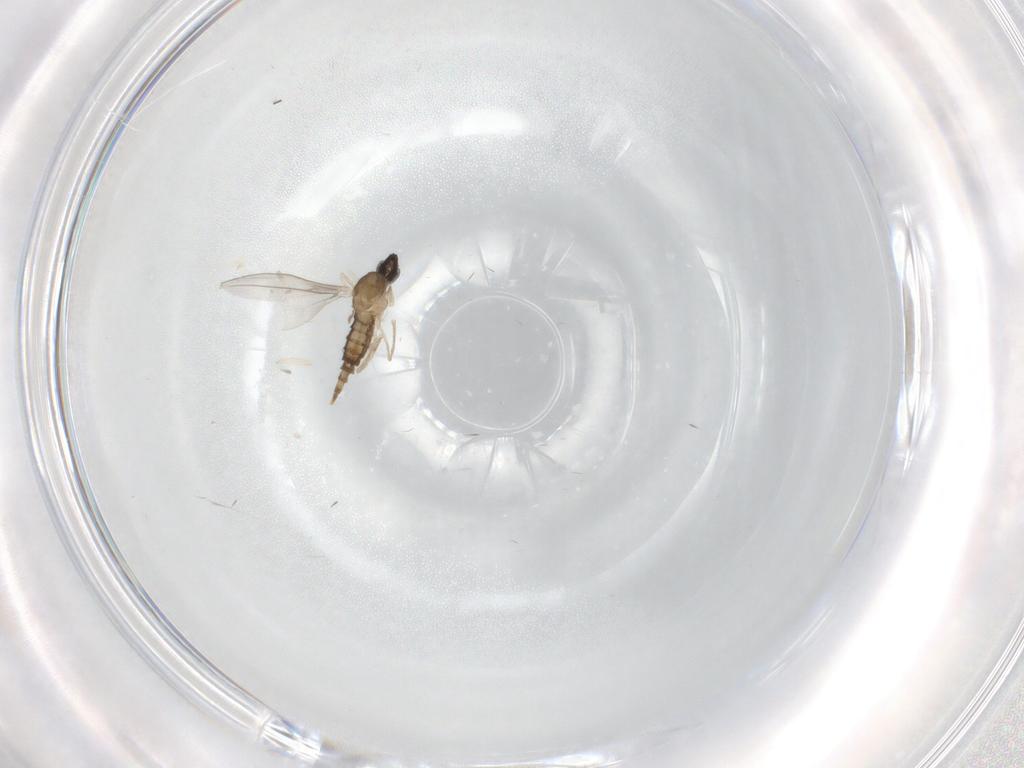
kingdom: Animalia
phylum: Arthropoda
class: Insecta
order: Diptera
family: Cecidomyiidae
